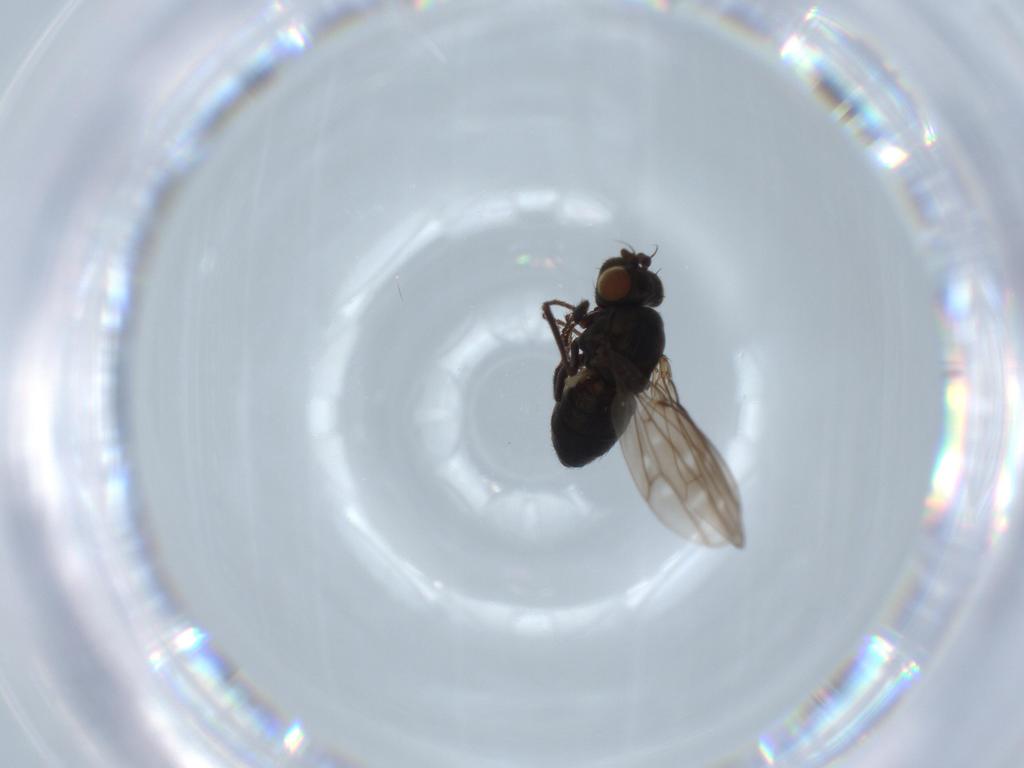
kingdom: Animalia
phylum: Arthropoda
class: Insecta
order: Diptera
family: Ephydridae
